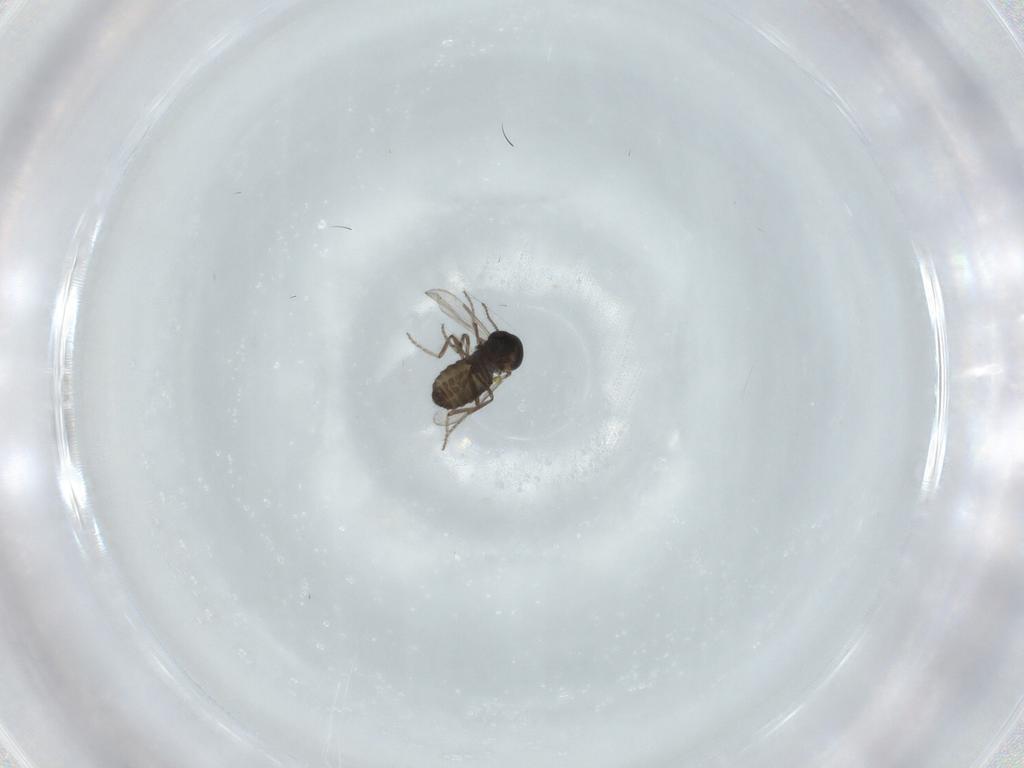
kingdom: Animalia
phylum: Arthropoda
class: Insecta
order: Diptera
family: Ceratopogonidae
